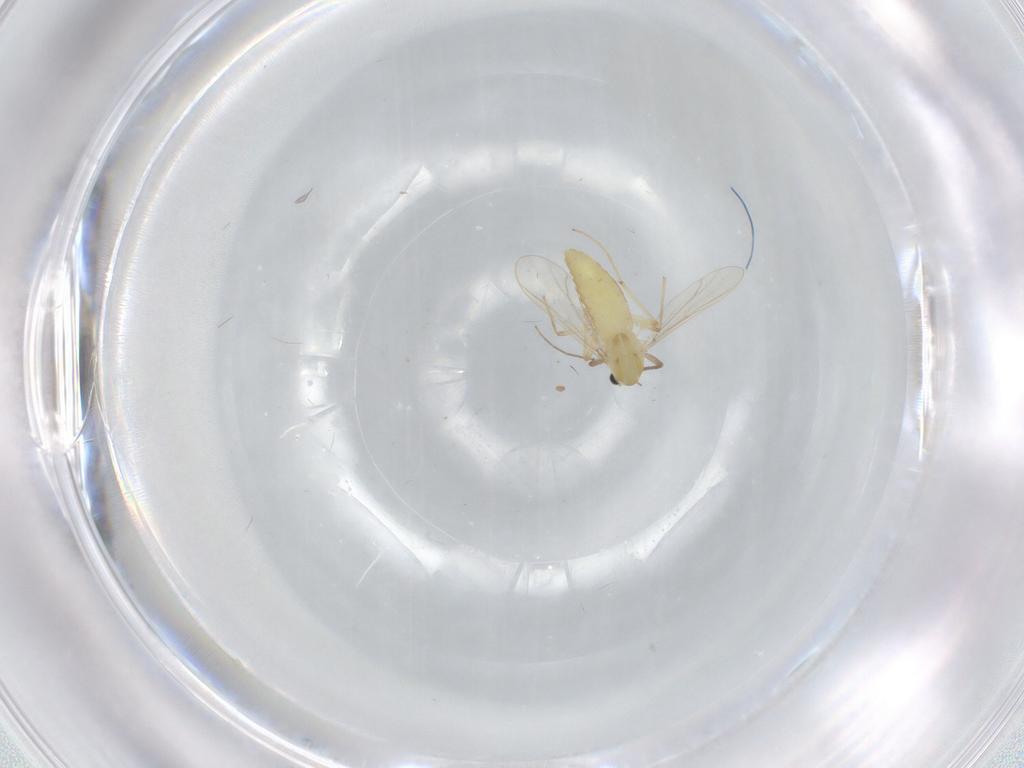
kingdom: Animalia
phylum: Arthropoda
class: Insecta
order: Diptera
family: Chironomidae
